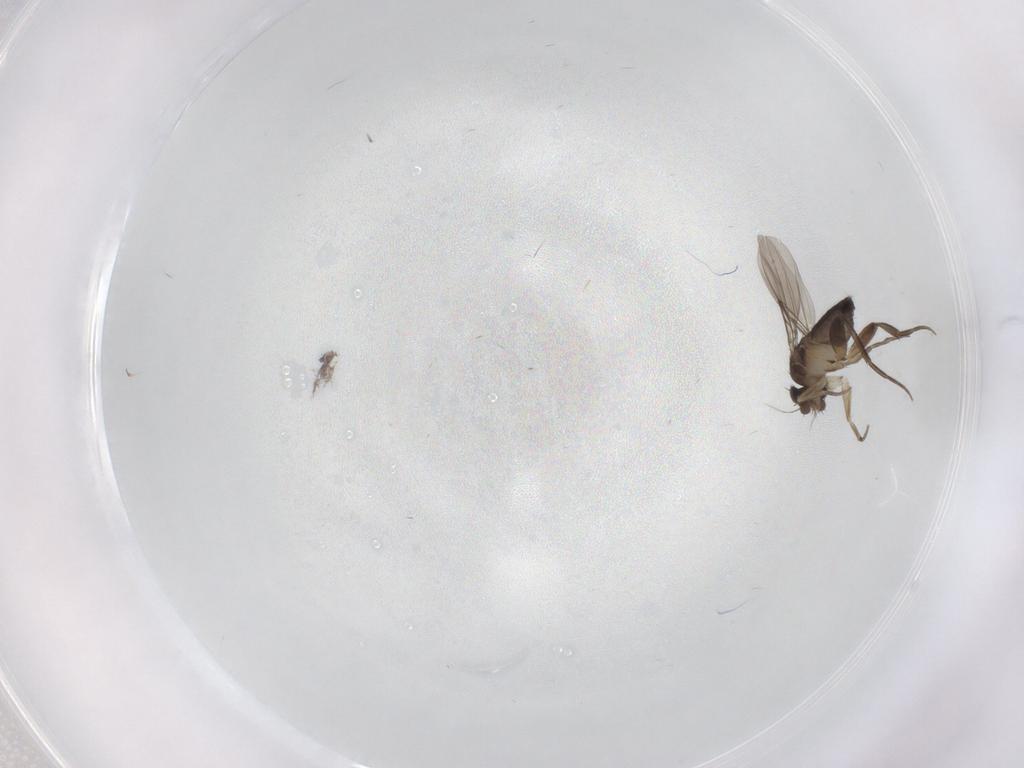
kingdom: Animalia
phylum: Arthropoda
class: Insecta
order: Diptera
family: Phoridae
